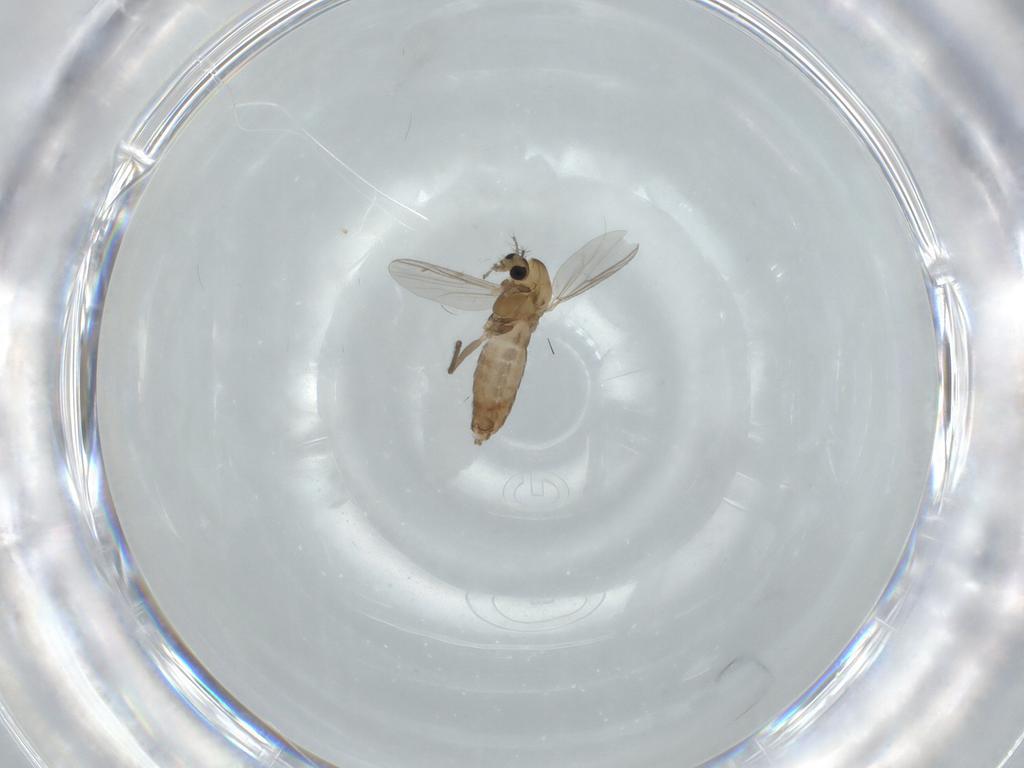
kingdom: Animalia
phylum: Arthropoda
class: Insecta
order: Diptera
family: Chironomidae
